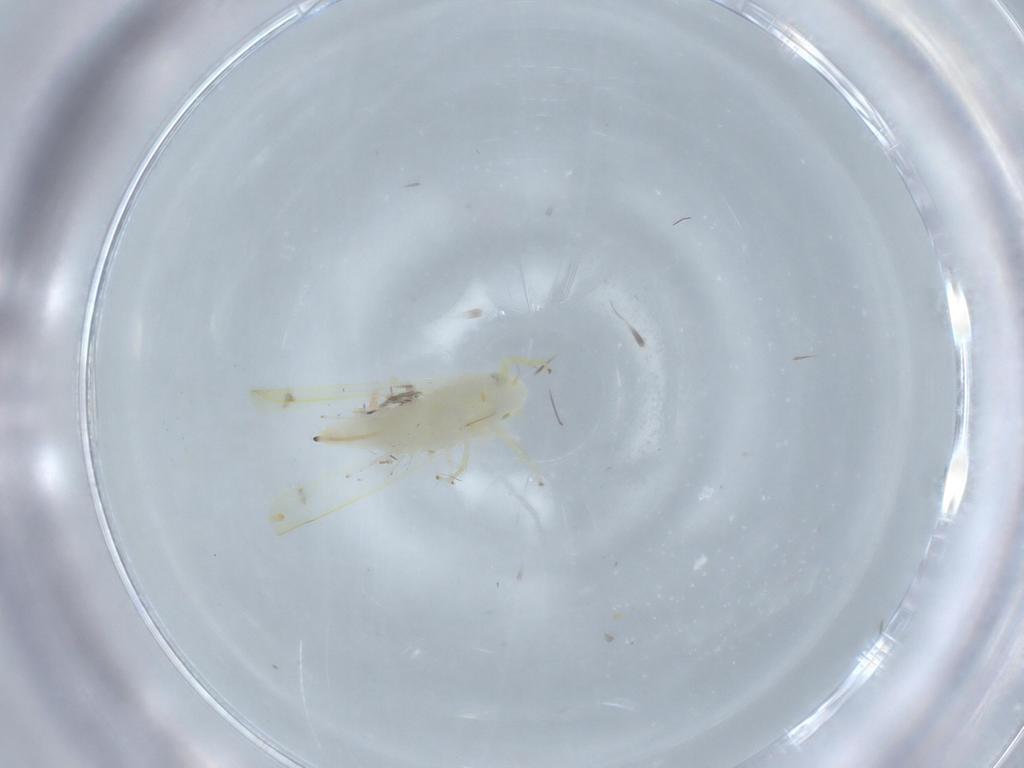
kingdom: Animalia
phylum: Arthropoda
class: Insecta
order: Hemiptera
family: Cicadellidae
